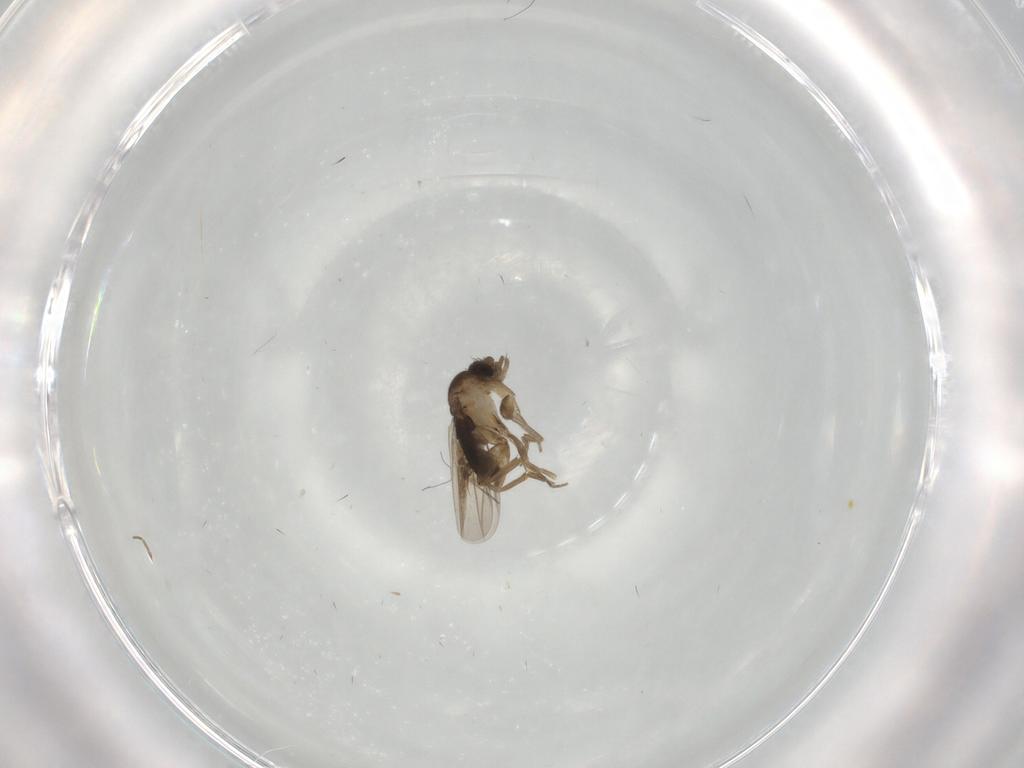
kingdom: Animalia
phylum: Arthropoda
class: Insecta
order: Diptera
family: Phoridae
